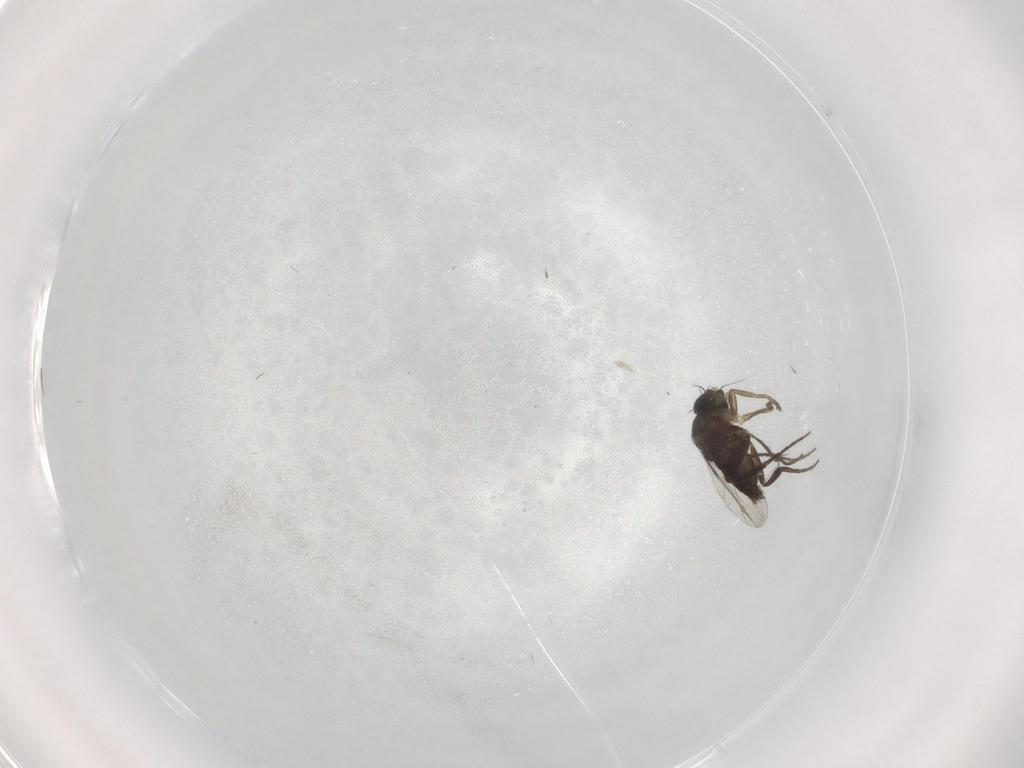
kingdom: Animalia
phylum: Arthropoda
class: Insecta
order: Diptera
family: Phoridae
